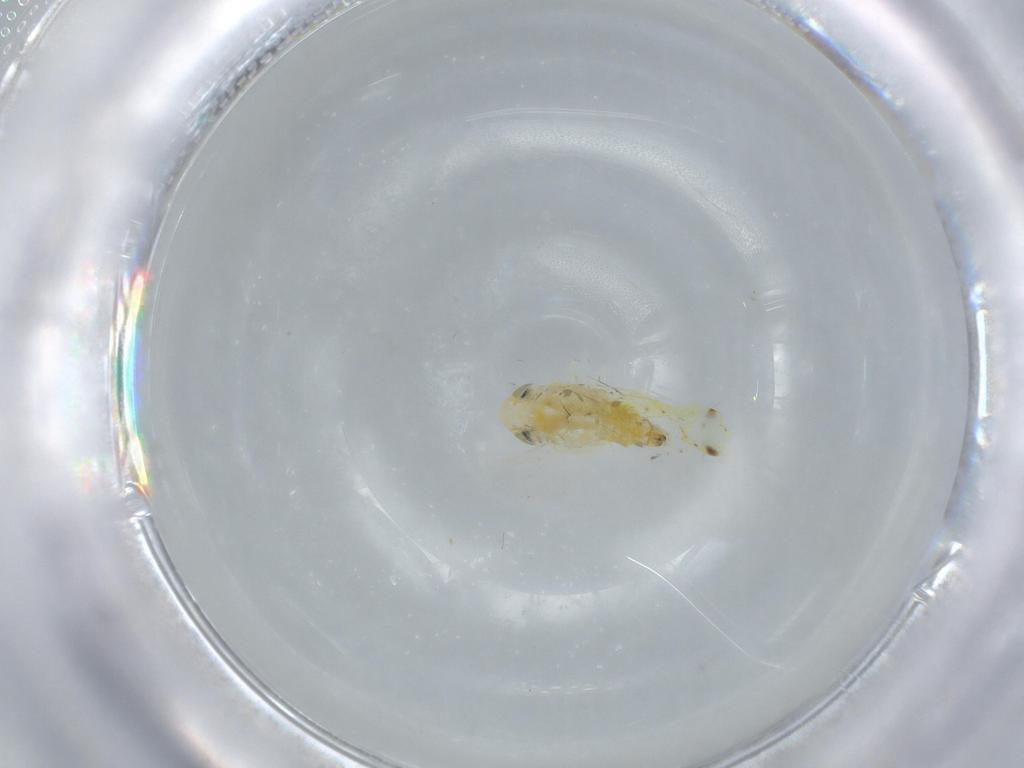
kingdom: Animalia
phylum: Arthropoda
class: Insecta
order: Hemiptera
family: Cicadellidae
